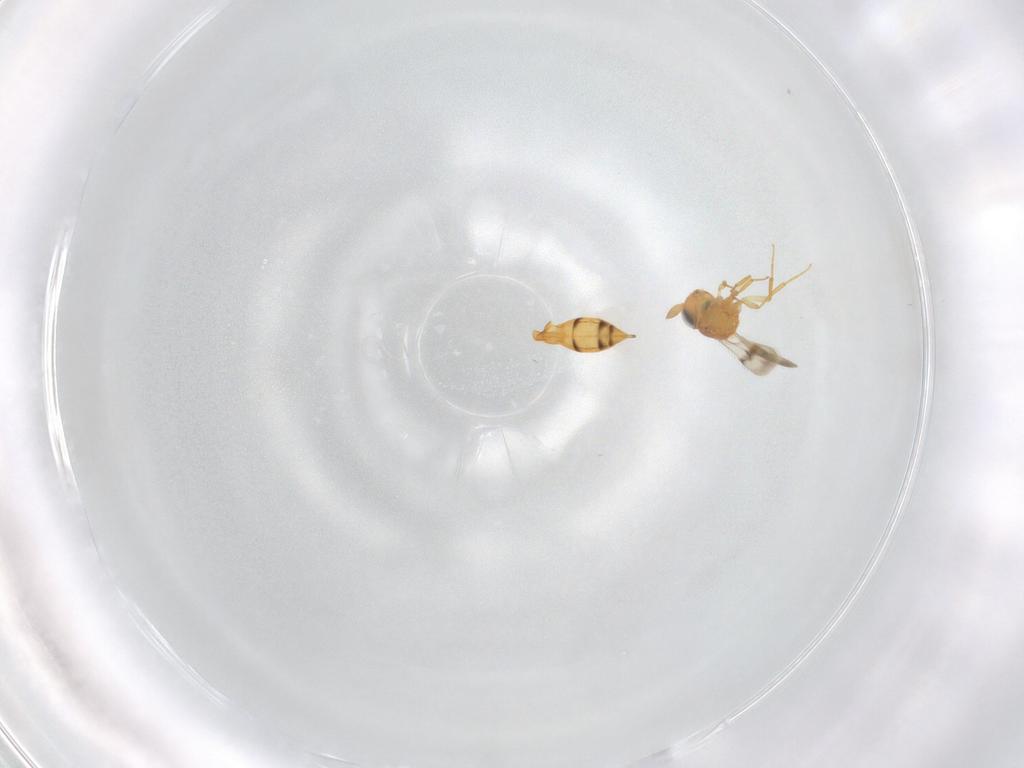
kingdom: Animalia
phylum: Arthropoda
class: Insecta
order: Hymenoptera
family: Scelionidae
